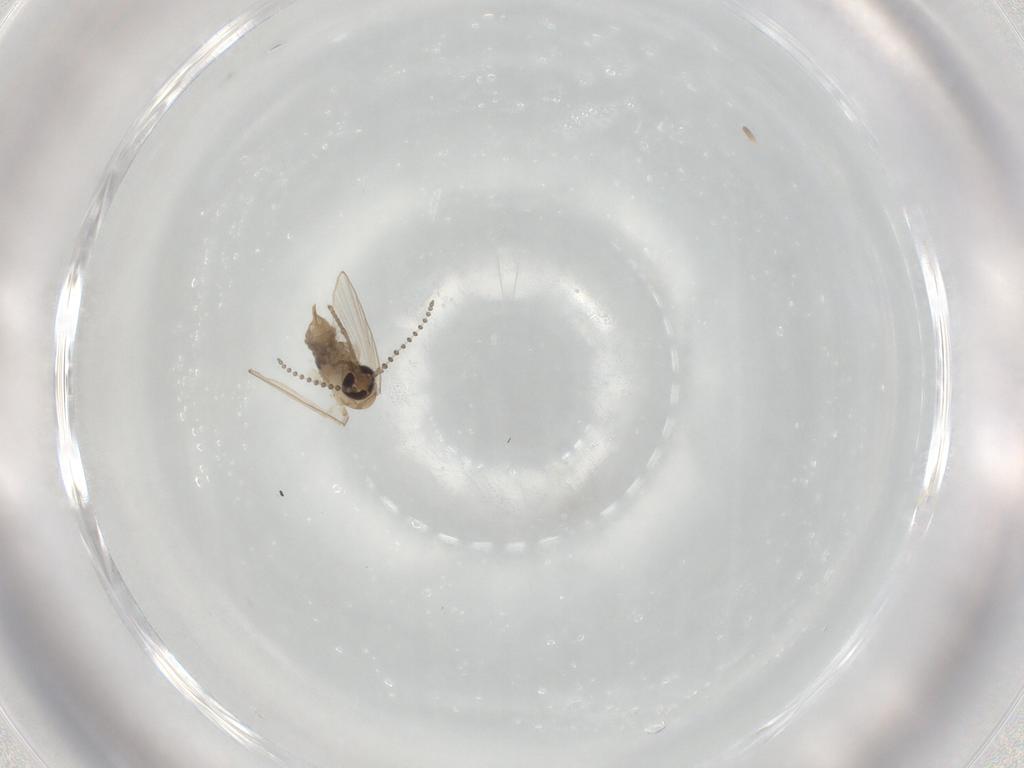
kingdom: Animalia
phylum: Arthropoda
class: Insecta
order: Diptera
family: Psychodidae
